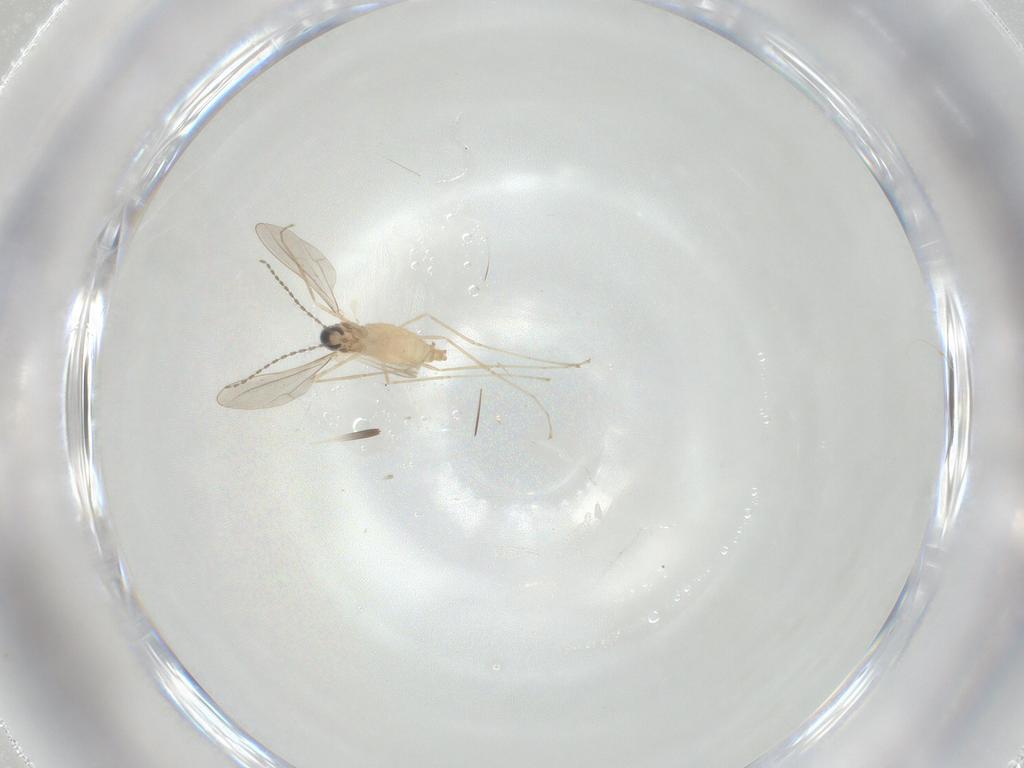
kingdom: Animalia
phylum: Arthropoda
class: Insecta
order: Diptera
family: Cecidomyiidae
